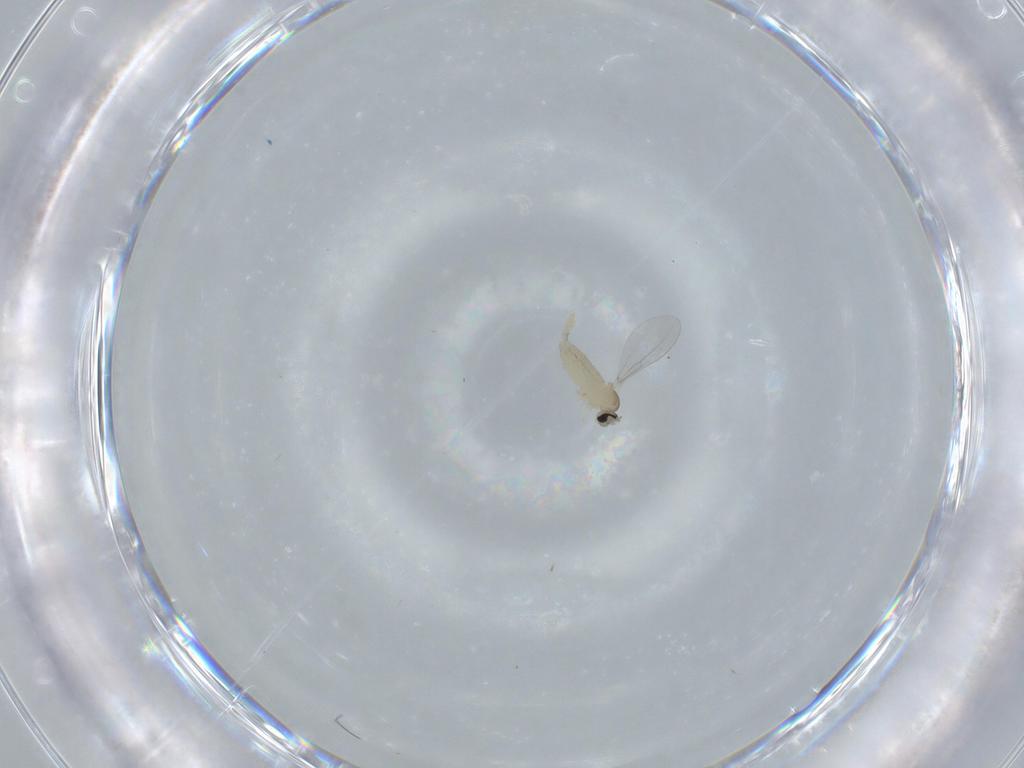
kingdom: Animalia
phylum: Arthropoda
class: Insecta
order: Diptera
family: Cecidomyiidae
